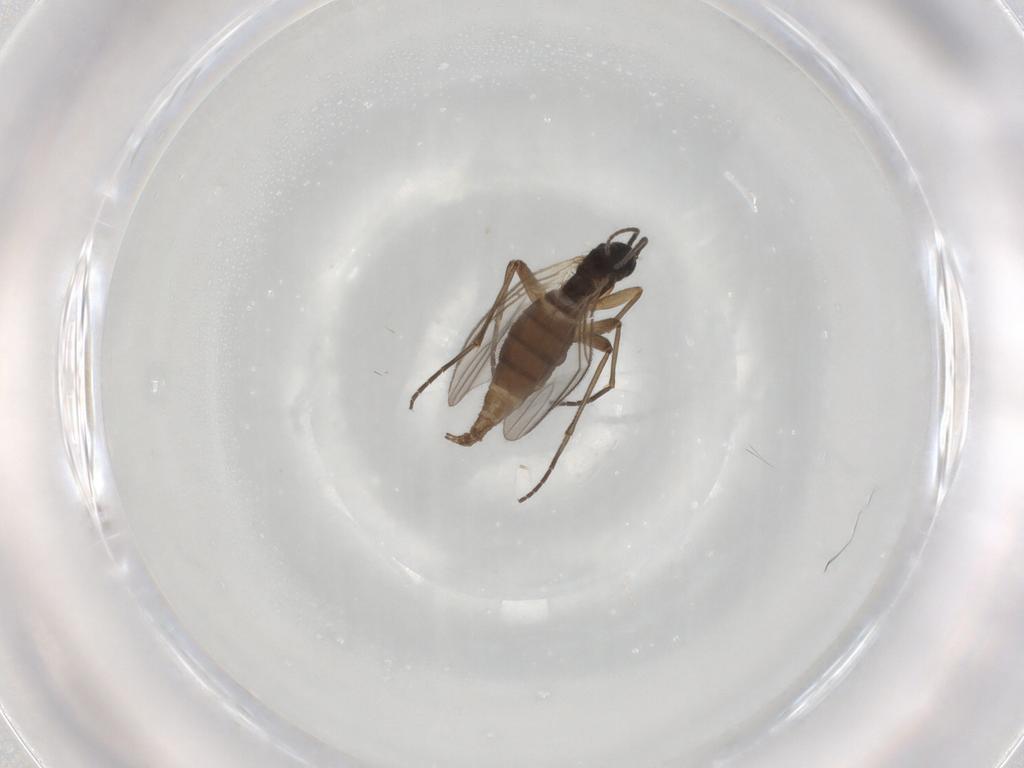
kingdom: Animalia
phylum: Arthropoda
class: Insecta
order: Diptera
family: Sciaridae
